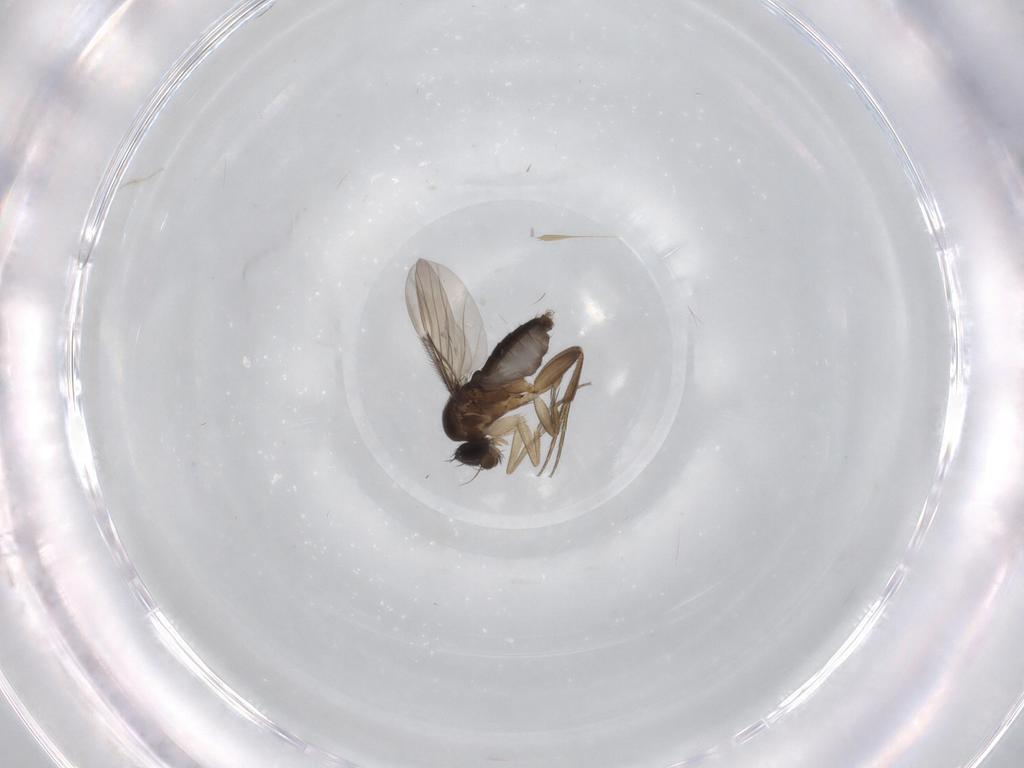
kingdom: Animalia
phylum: Arthropoda
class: Insecta
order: Diptera
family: Phoridae
